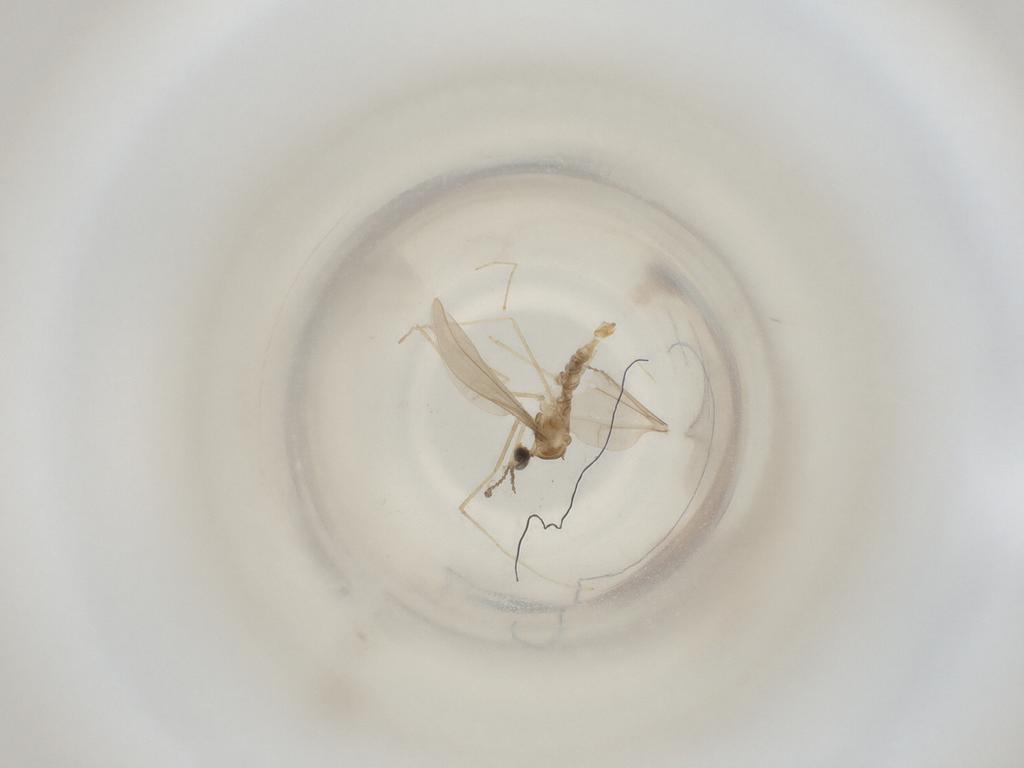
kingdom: Animalia
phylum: Arthropoda
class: Insecta
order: Diptera
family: Cecidomyiidae
